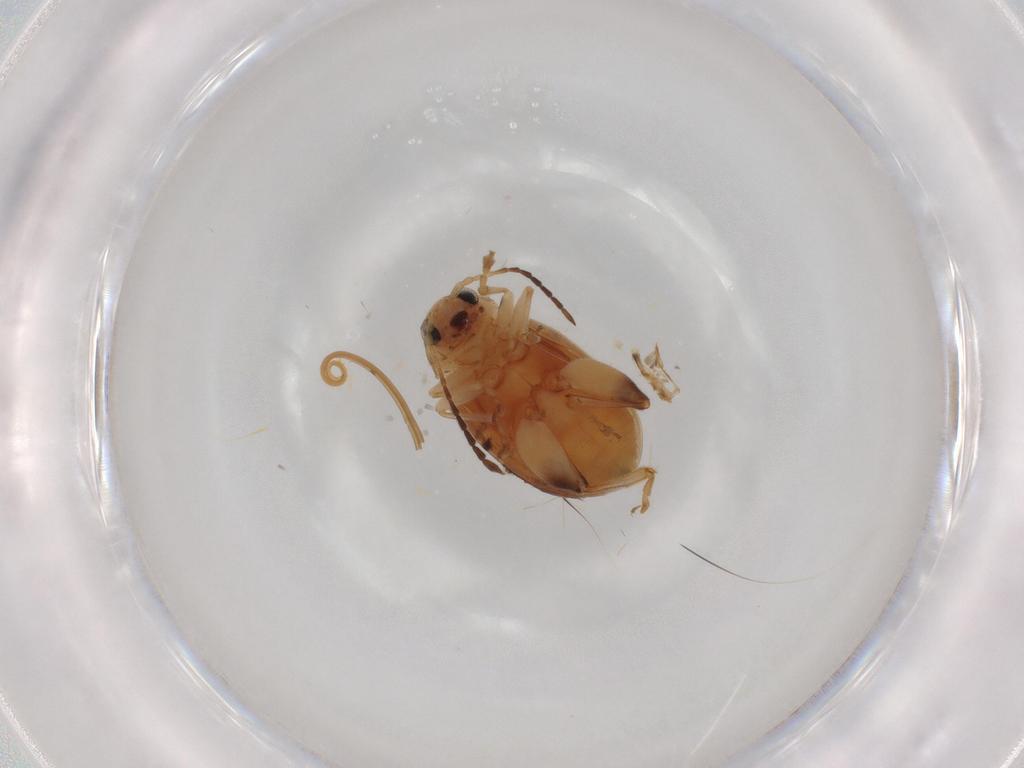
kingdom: Animalia
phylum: Arthropoda
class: Insecta
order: Coleoptera
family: Chrysomelidae
